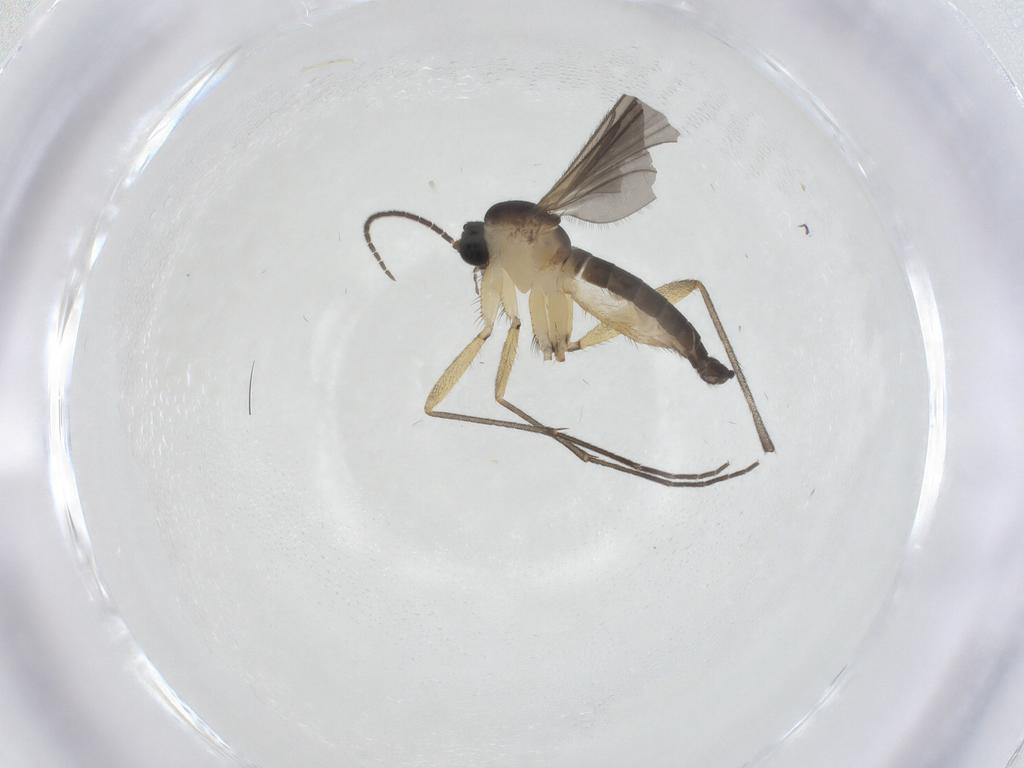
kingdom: Animalia
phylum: Arthropoda
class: Insecta
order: Diptera
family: Sciaridae
